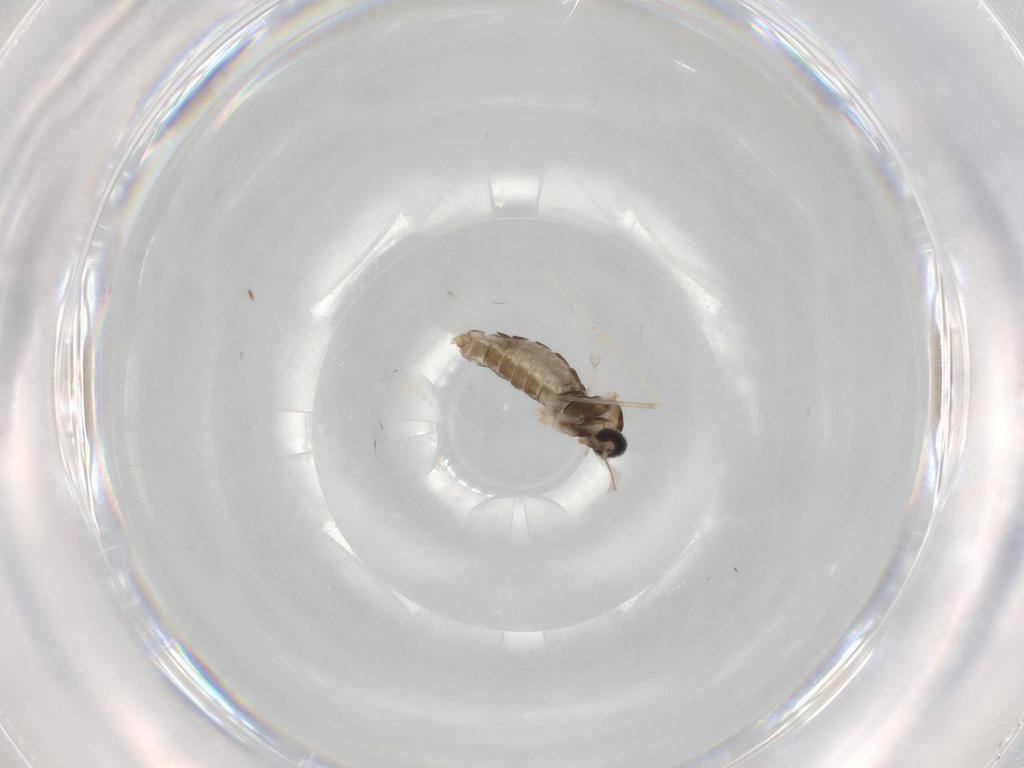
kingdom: Animalia
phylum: Arthropoda
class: Insecta
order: Diptera
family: Cecidomyiidae
